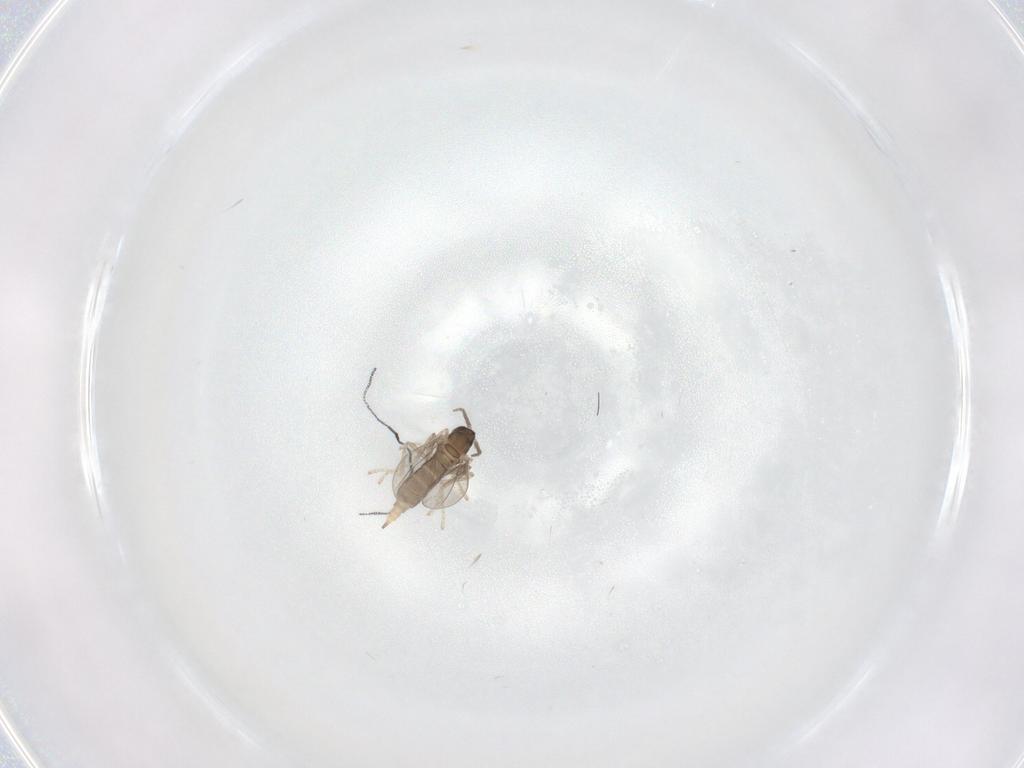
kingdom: Animalia
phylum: Arthropoda
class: Insecta
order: Diptera
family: Cecidomyiidae
